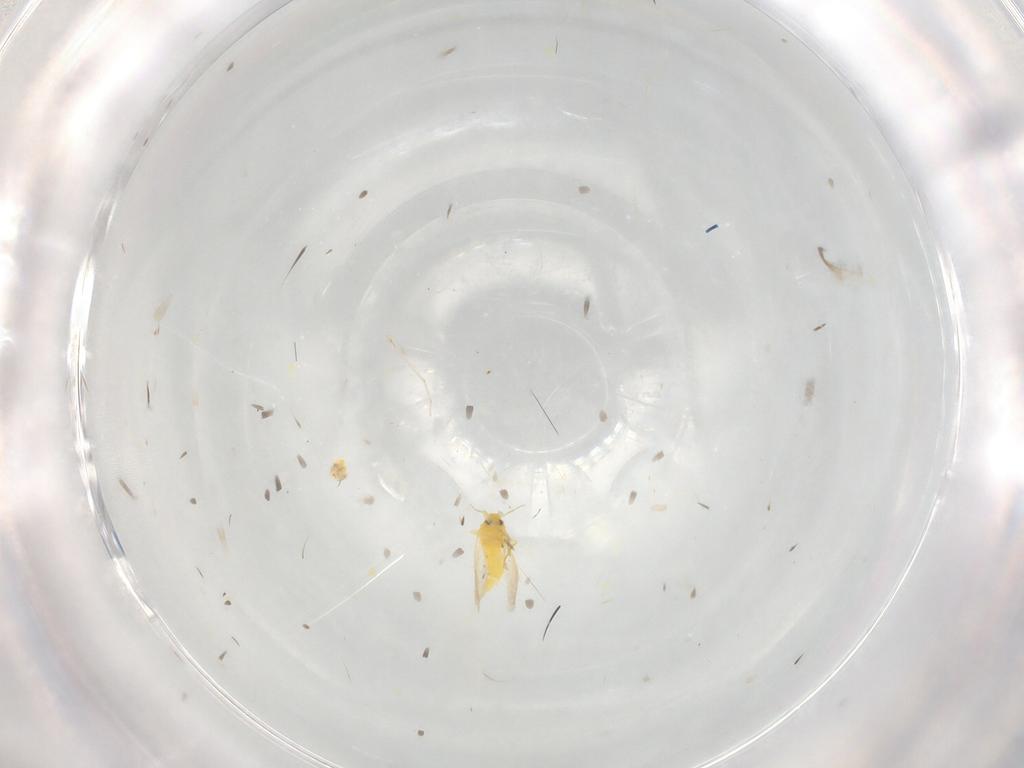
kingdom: Animalia
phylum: Arthropoda
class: Insecta
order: Hemiptera
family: Aleyrodidae
